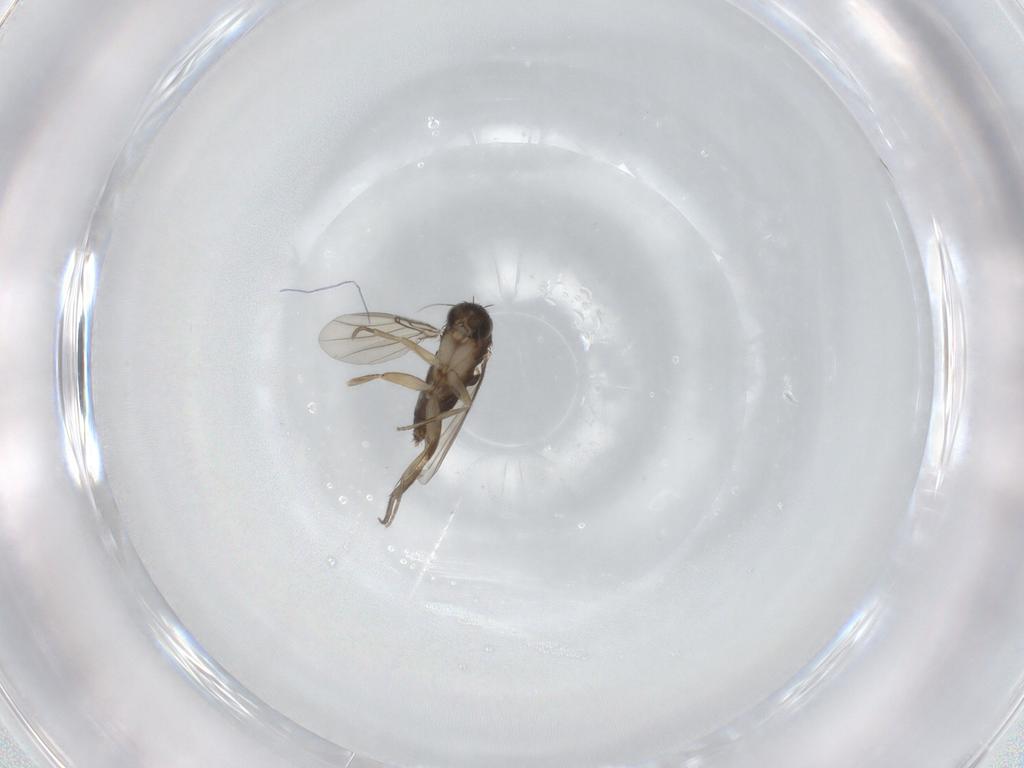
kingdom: Animalia
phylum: Arthropoda
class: Insecta
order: Diptera
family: Phoridae
